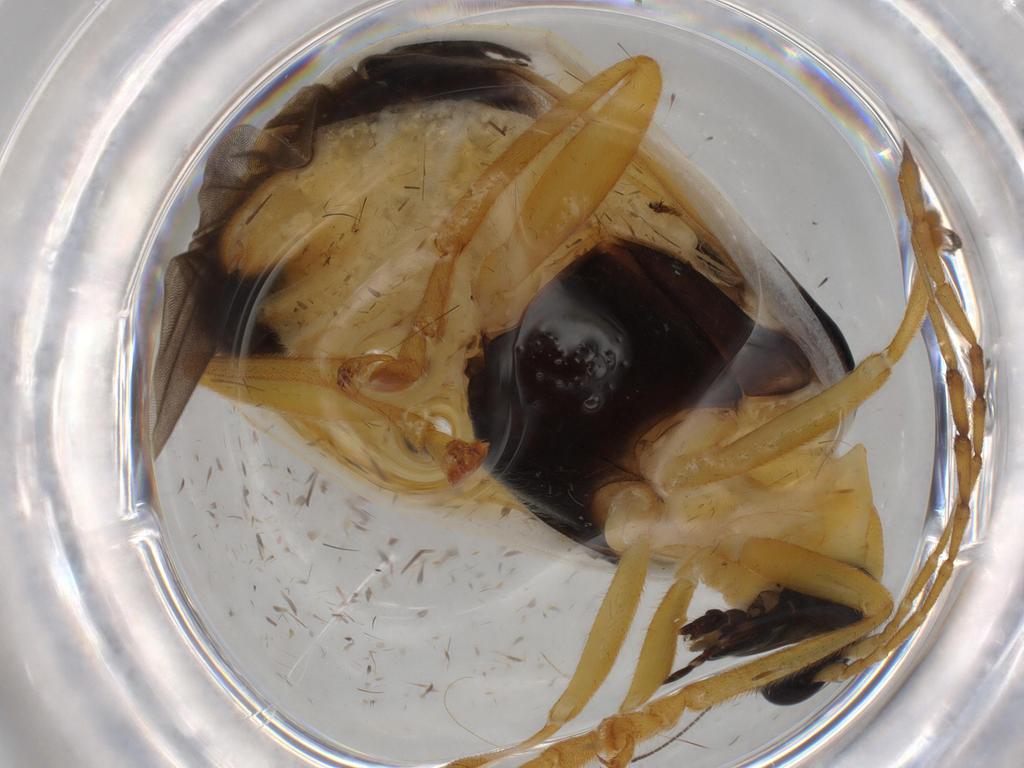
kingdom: Animalia
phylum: Arthropoda
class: Insecta
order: Coleoptera
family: Chrysomelidae
